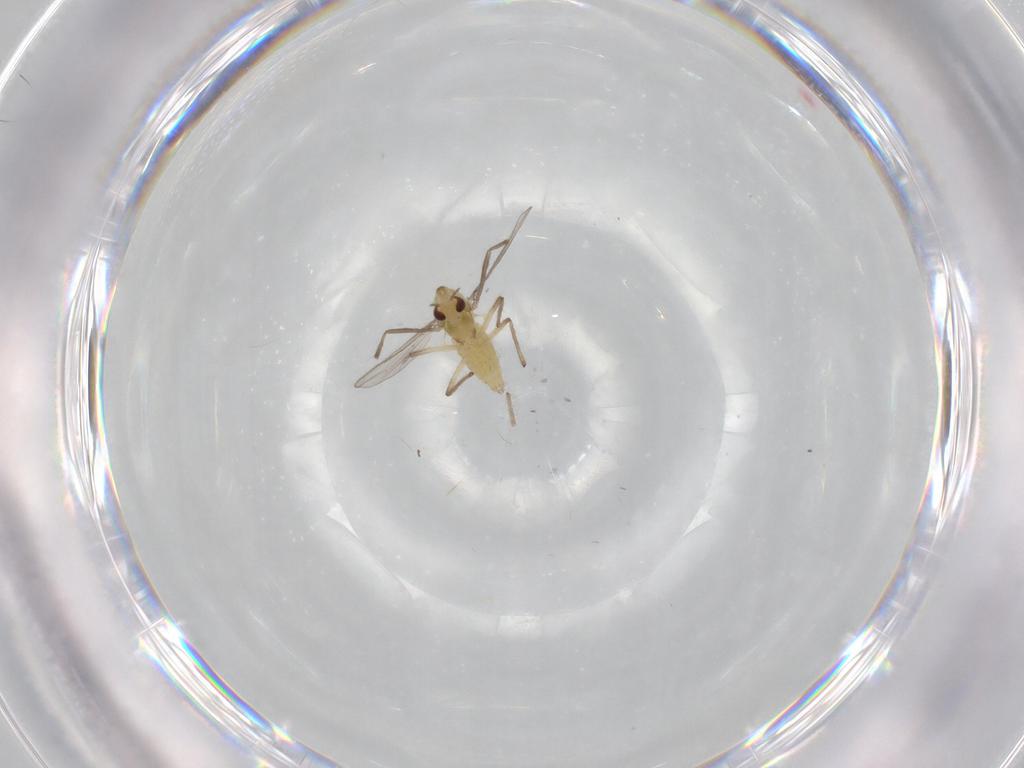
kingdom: Animalia
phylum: Arthropoda
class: Insecta
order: Diptera
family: Chironomidae
